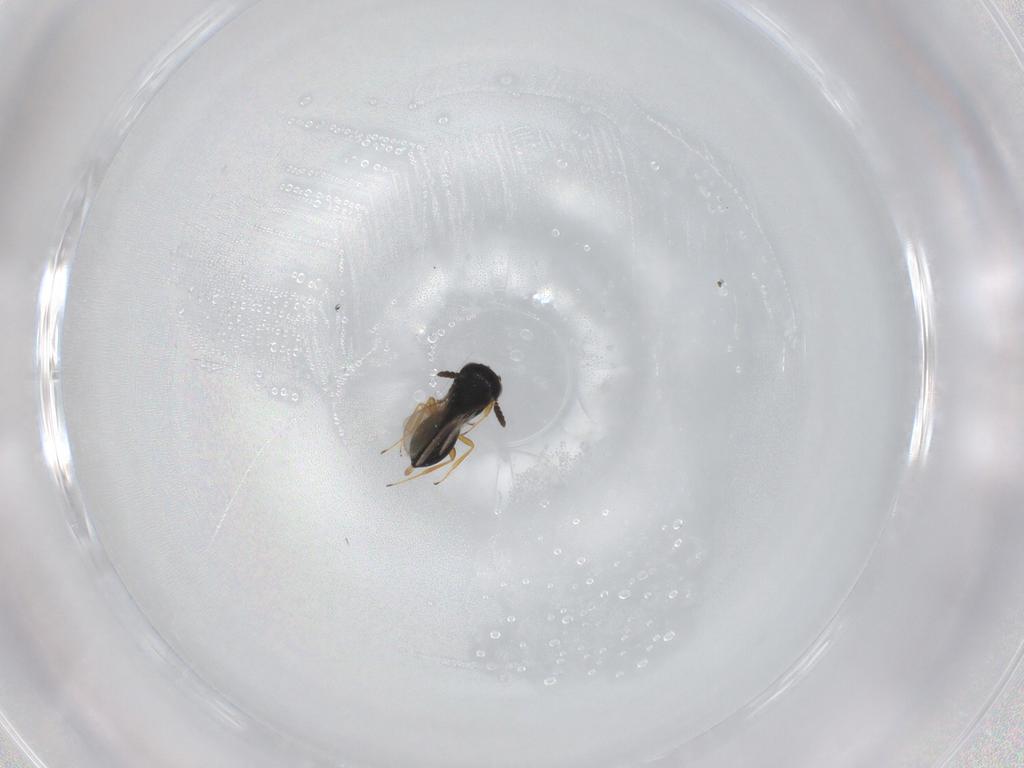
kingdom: Animalia
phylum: Arthropoda
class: Insecta
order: Hymenoptera
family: Scelionidae
